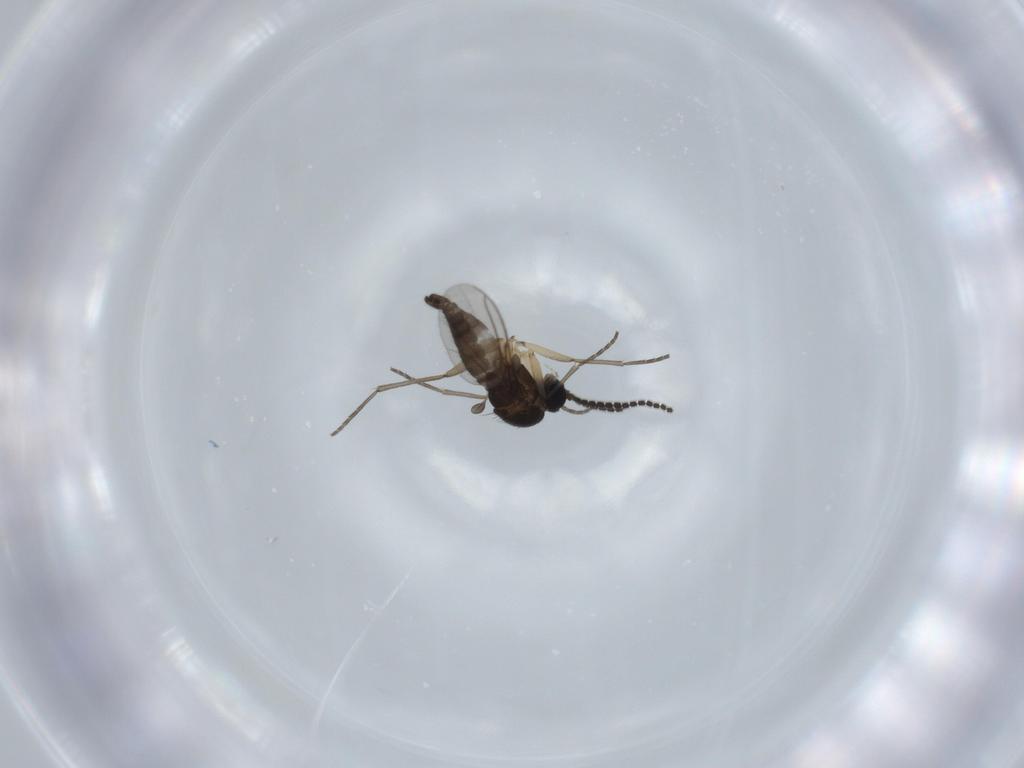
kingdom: Animalia
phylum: Arthropoda
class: Insecta
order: Diptera
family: Sciaridae
